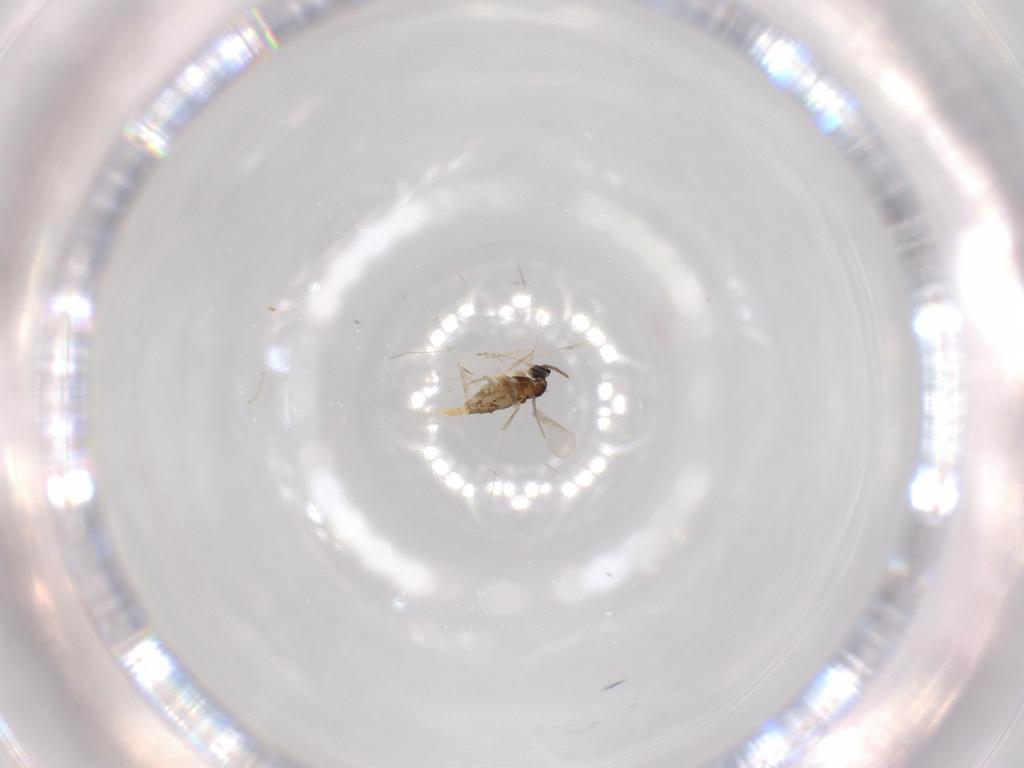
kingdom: Animalia
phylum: Arthropoda
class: Insecta
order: Diptera
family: Cecidomyiidae
